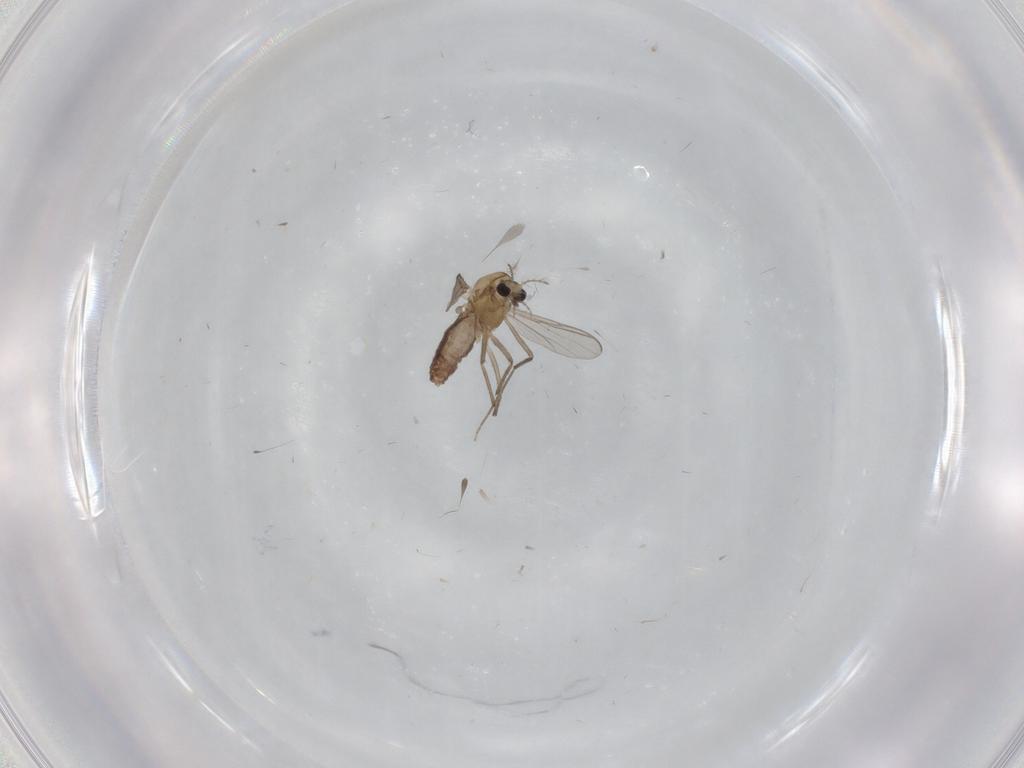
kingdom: Animalia
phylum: Arthropoda
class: Insecta
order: Diptera
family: Chironomidae
